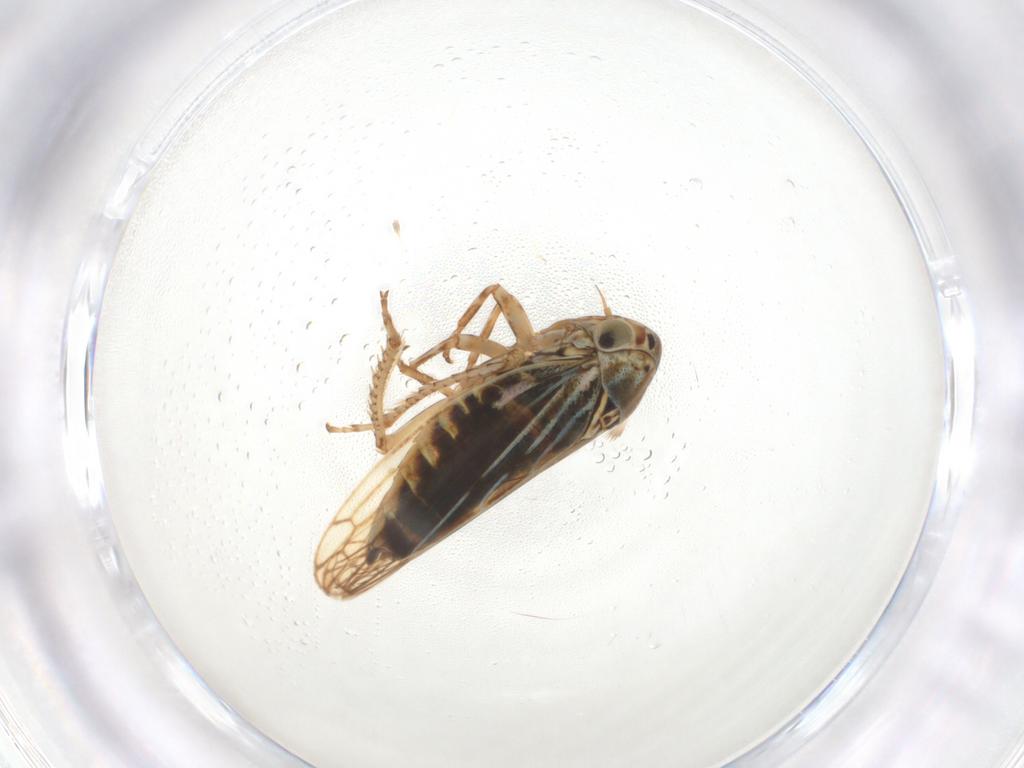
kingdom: Animalia
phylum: Arthropoda
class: Insecta
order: Hemiptera
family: Cicadellidae
